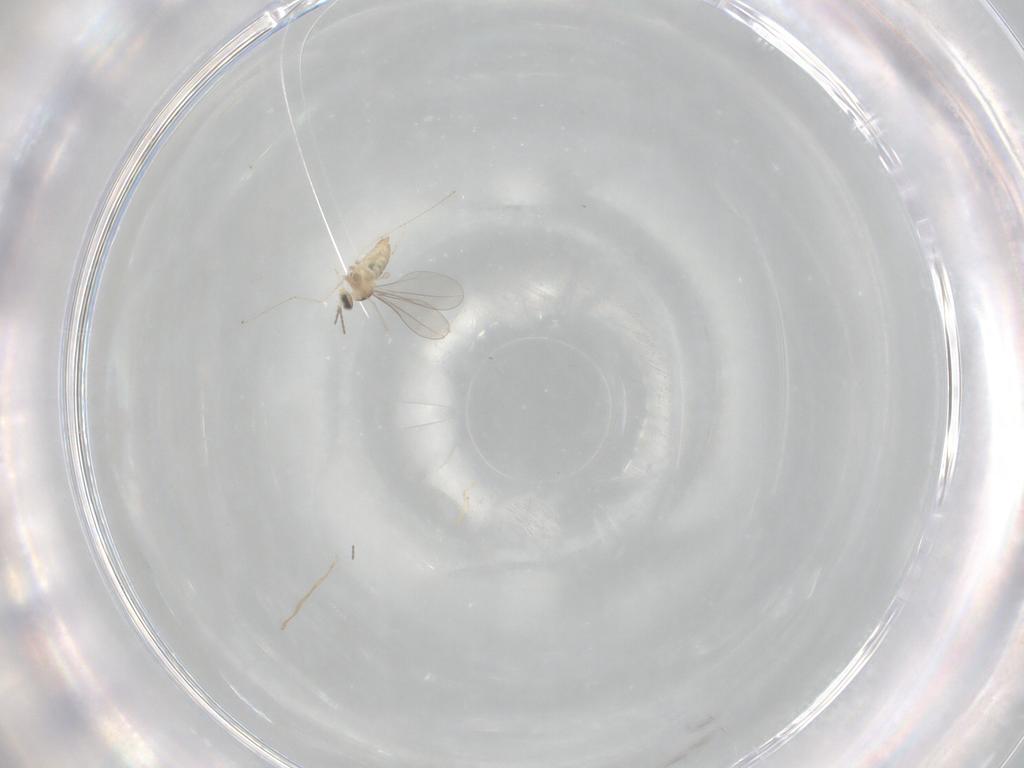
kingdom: Animalia
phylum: Arthropoda
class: Insecta
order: Diptera
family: Cecidomyiidae
